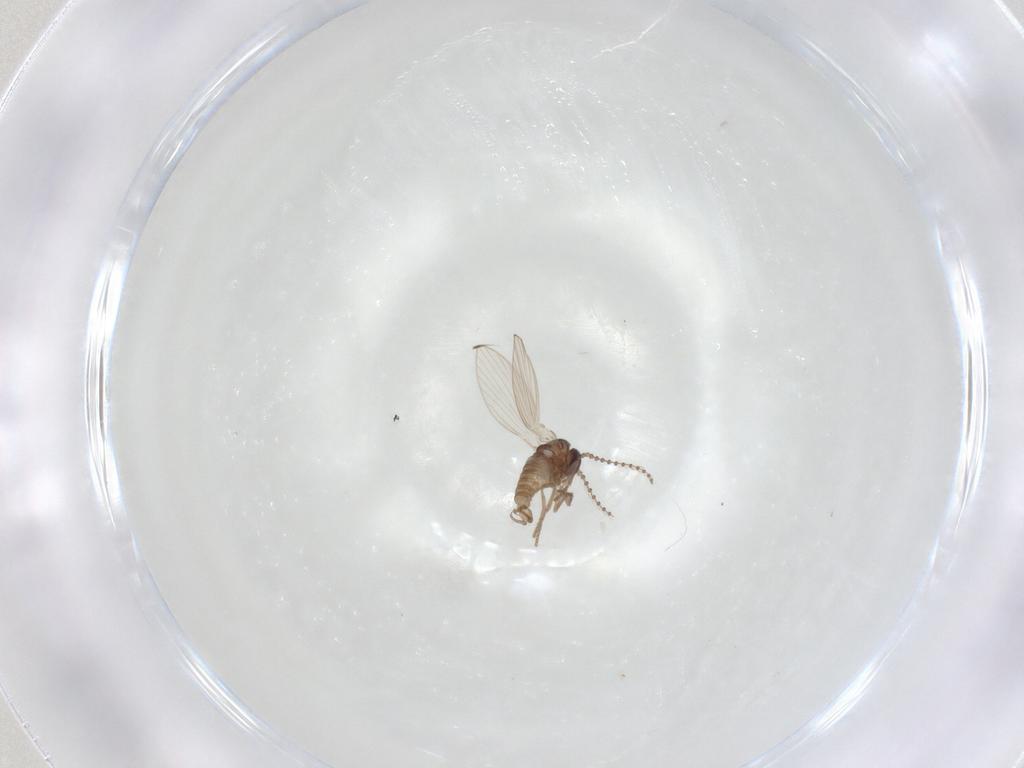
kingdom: Animalia
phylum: Arthropoda
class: Insecta
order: Diptera
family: Psychodidae
